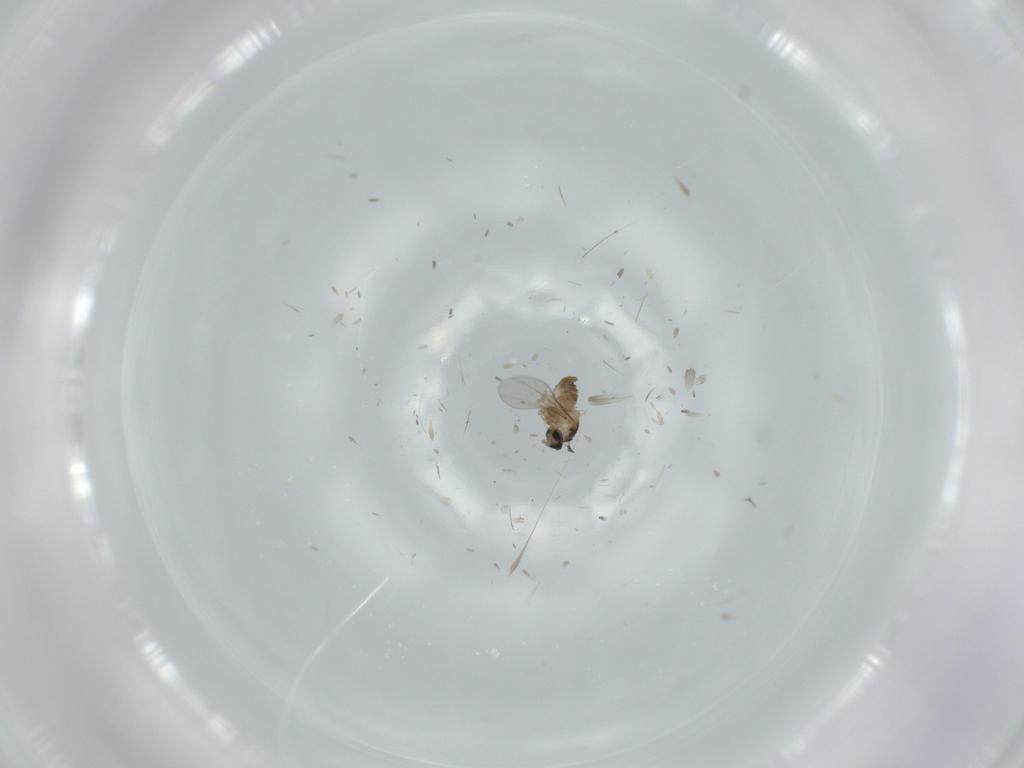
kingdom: Animalia
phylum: Arthropoda
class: Insecta
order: Diptera
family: Cecidomyiidae
